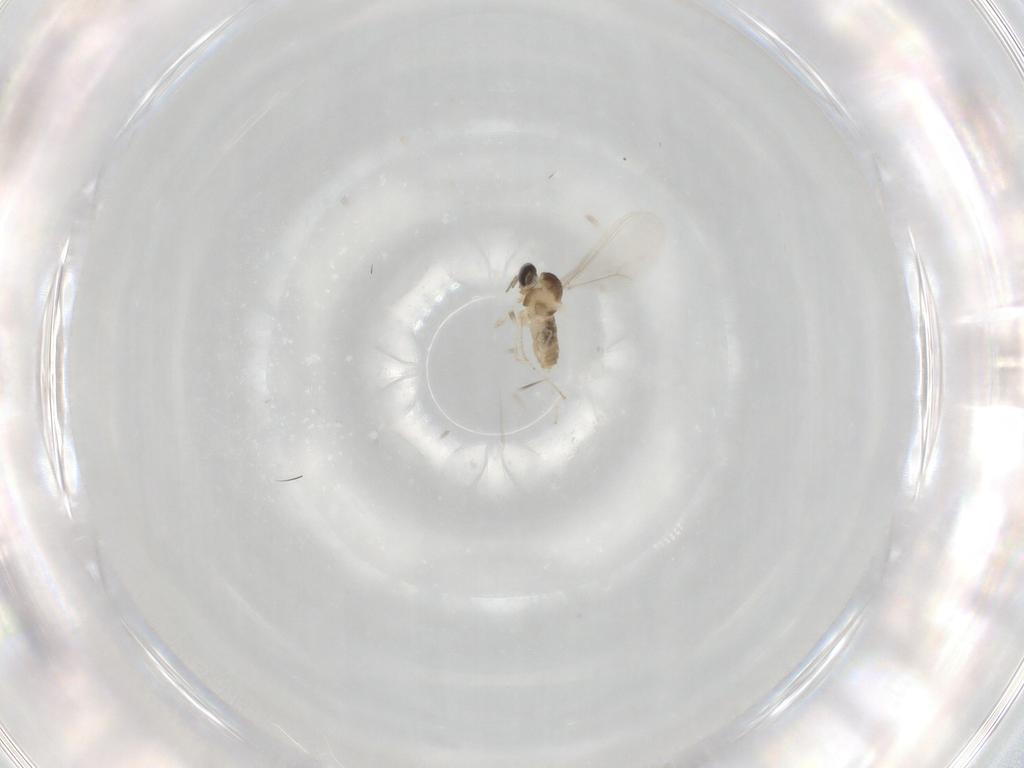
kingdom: Animalia
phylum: Arthropoda
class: Insecta
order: Diptera
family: Cecidomyiidae
